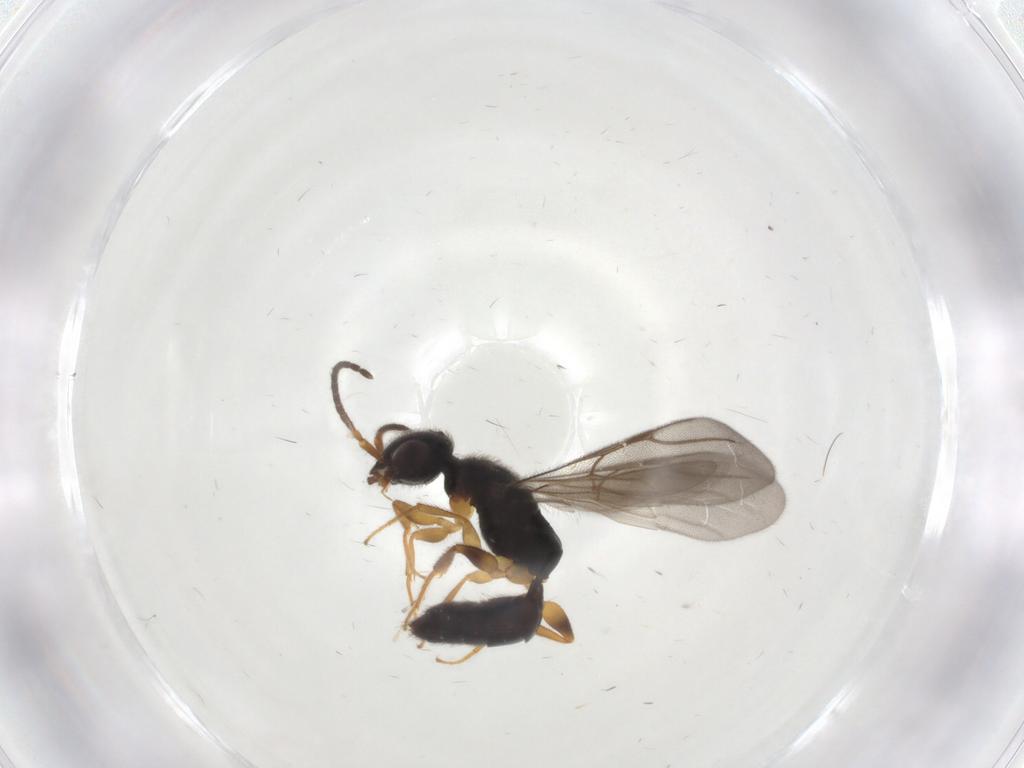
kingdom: Animalia
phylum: Arthropoda
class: Insecta
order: Hymenoptera
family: Bethylidae
